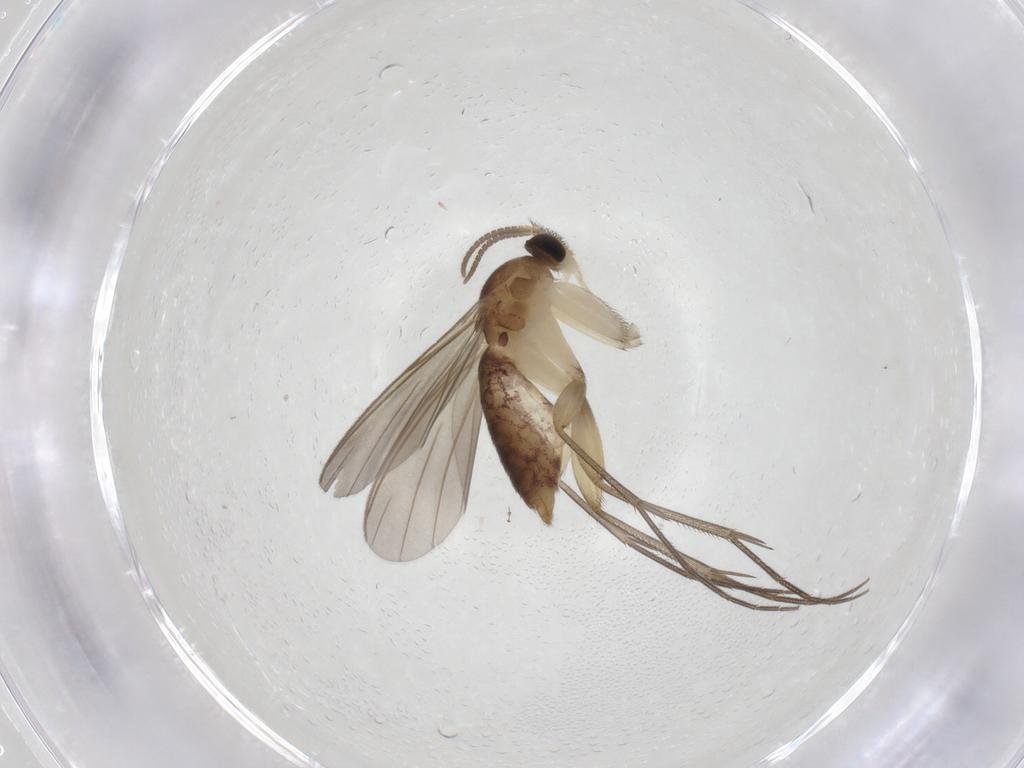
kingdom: Animalia
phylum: Arthropoda
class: Insecta
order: Diptera
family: Mycetophilidae
